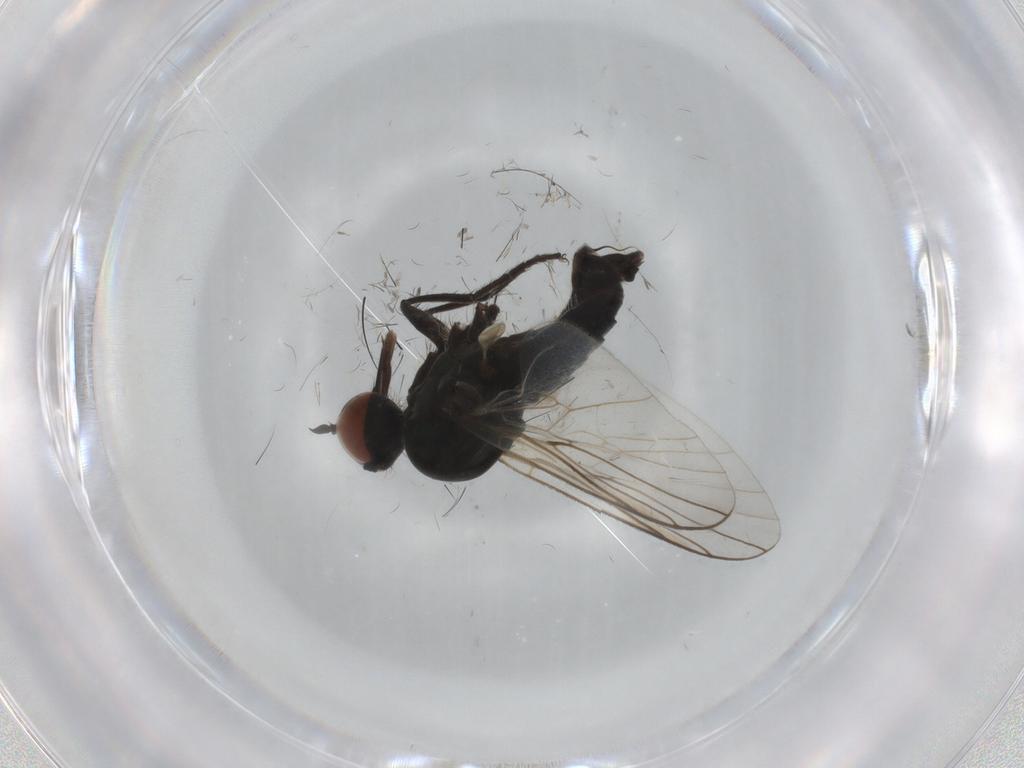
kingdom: Animalia
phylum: Arthropoda
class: Insecta
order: Diptera
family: Empididae
